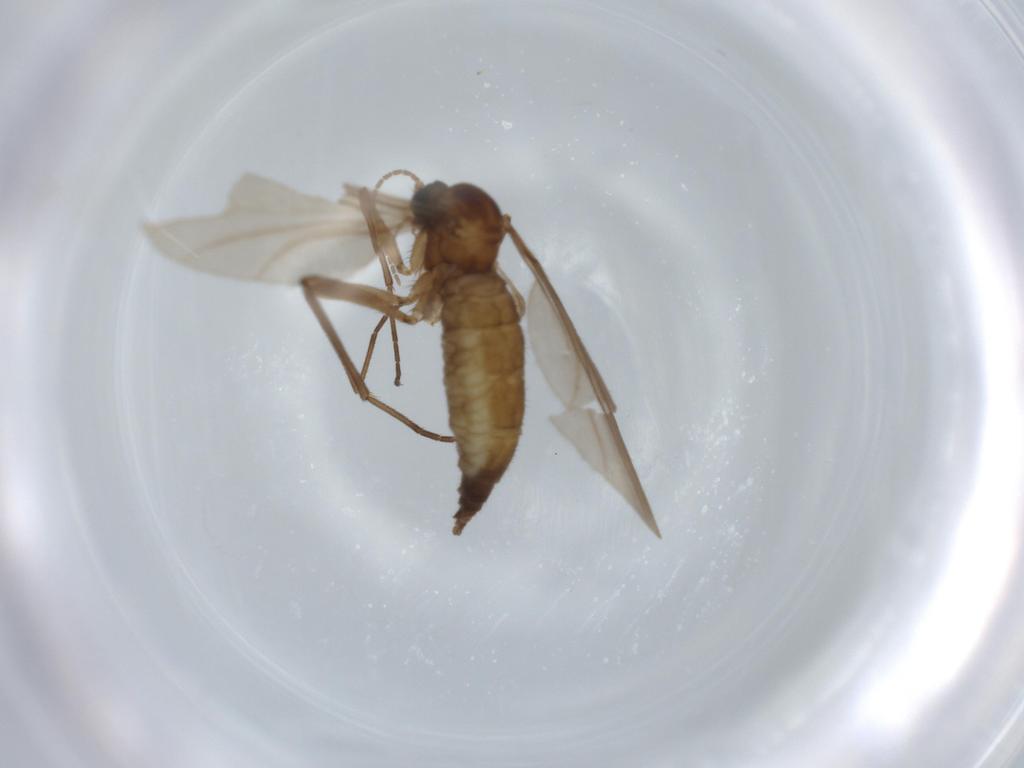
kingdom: Animalia
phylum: Arthropoda
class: Insecta
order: Diptera
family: Sciaridae
